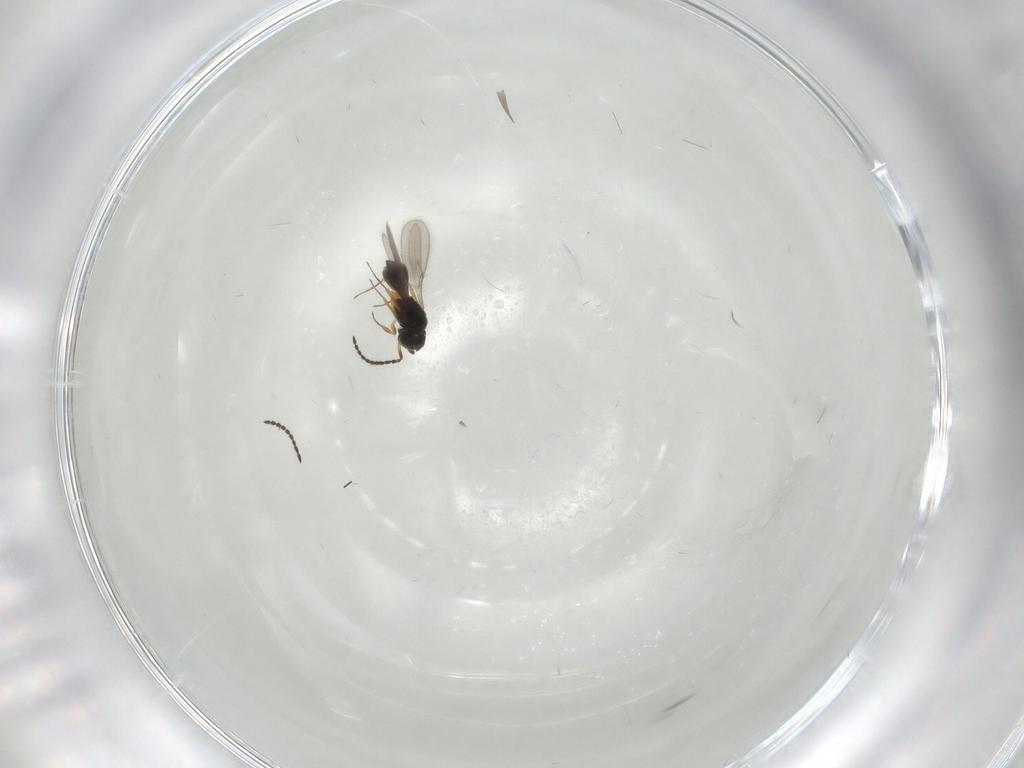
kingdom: Animalia
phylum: Arthropoda
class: Insecta
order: Hymenoptera
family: Scelionidae
